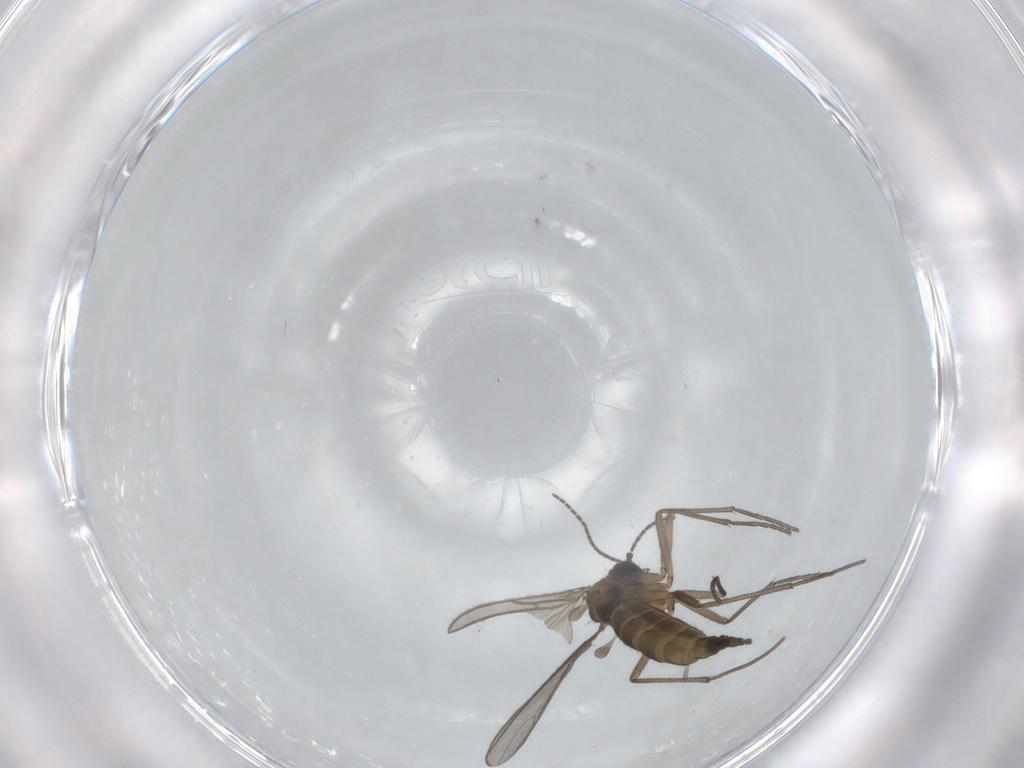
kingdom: Animalia
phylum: Arthropoda
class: Insecta
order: Diptera
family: Sciaridae
